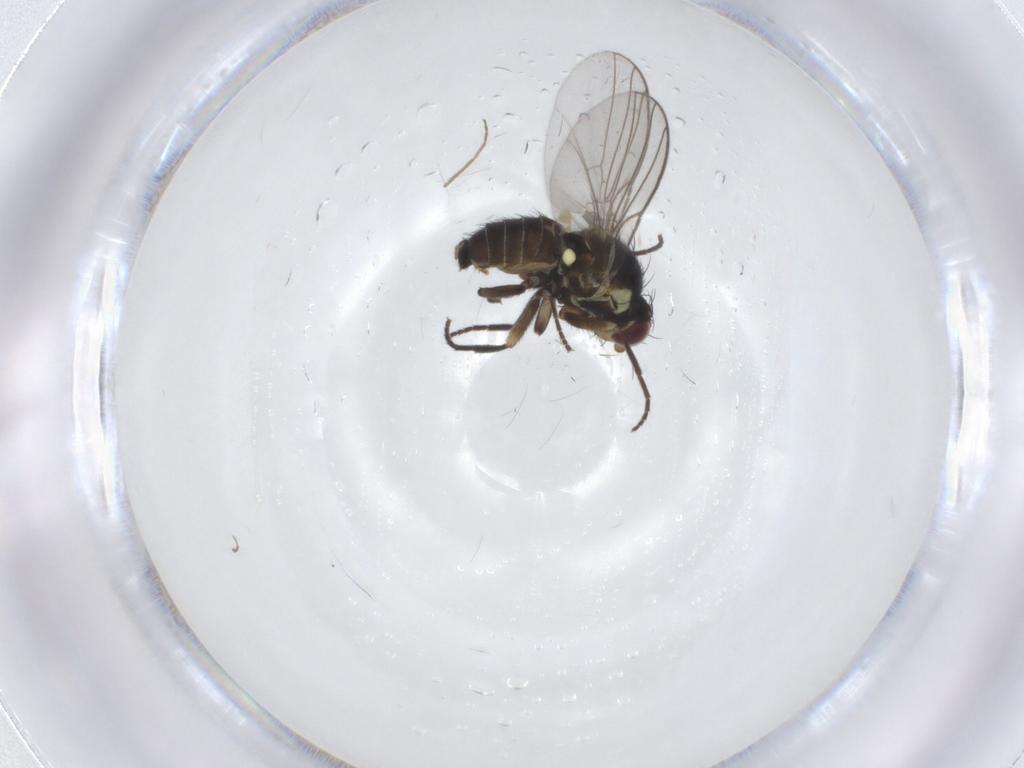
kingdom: Animalia
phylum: Arthropoda
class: Insecta
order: Diptera
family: Agromyzidae
